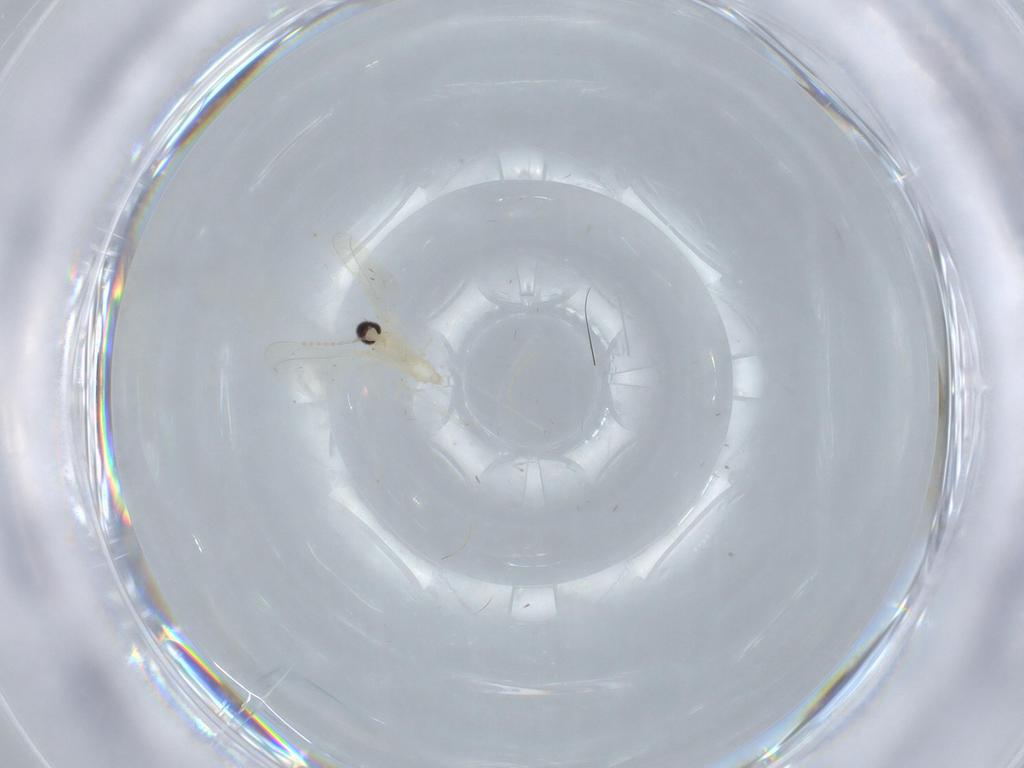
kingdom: Animalia
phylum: Arthropoda
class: Insecta
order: Diptera
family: Cecidomyiidae
